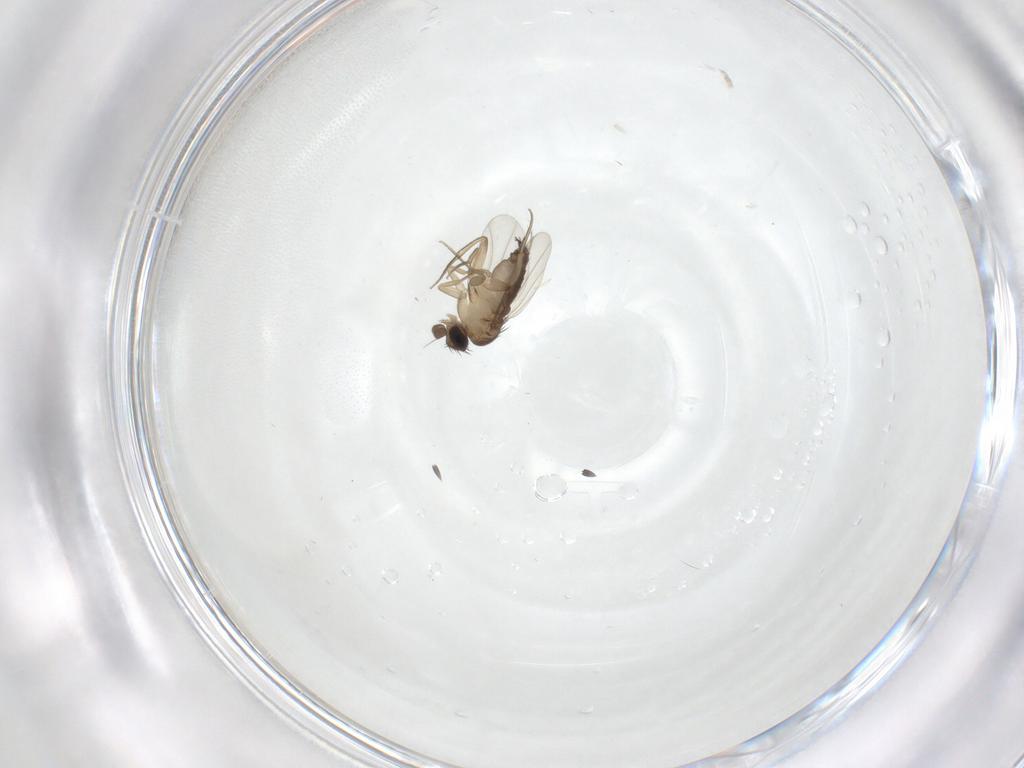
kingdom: Animalia
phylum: Arthropoda
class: Insecta
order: Diptera
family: Phoridae
